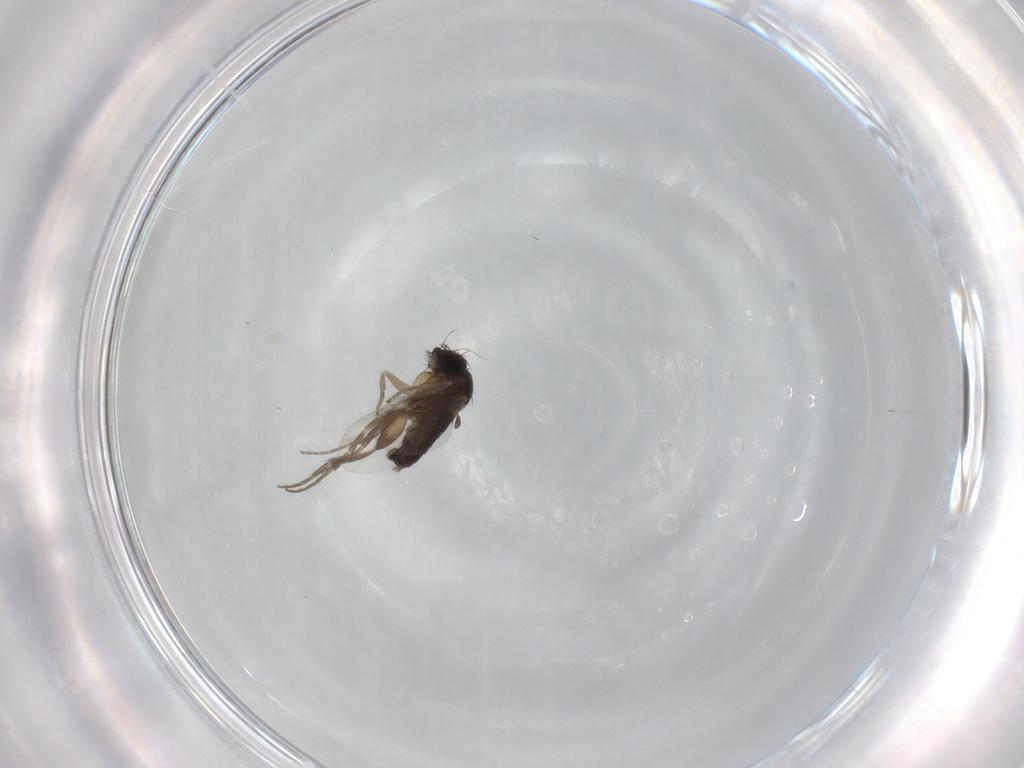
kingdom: Animalia
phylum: Arthropoda
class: Insecta
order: Diptera
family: Phoridae
